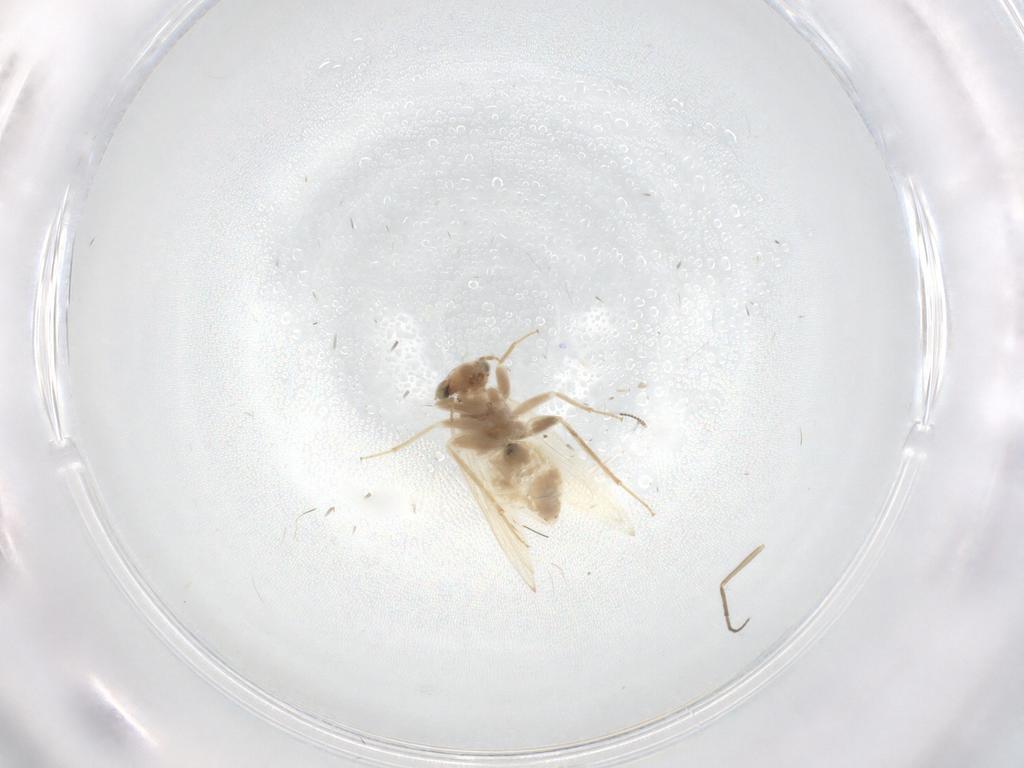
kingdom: Animalia
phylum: Arthropoda
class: Insecta
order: Psocodea
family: Lepidopsocidae
